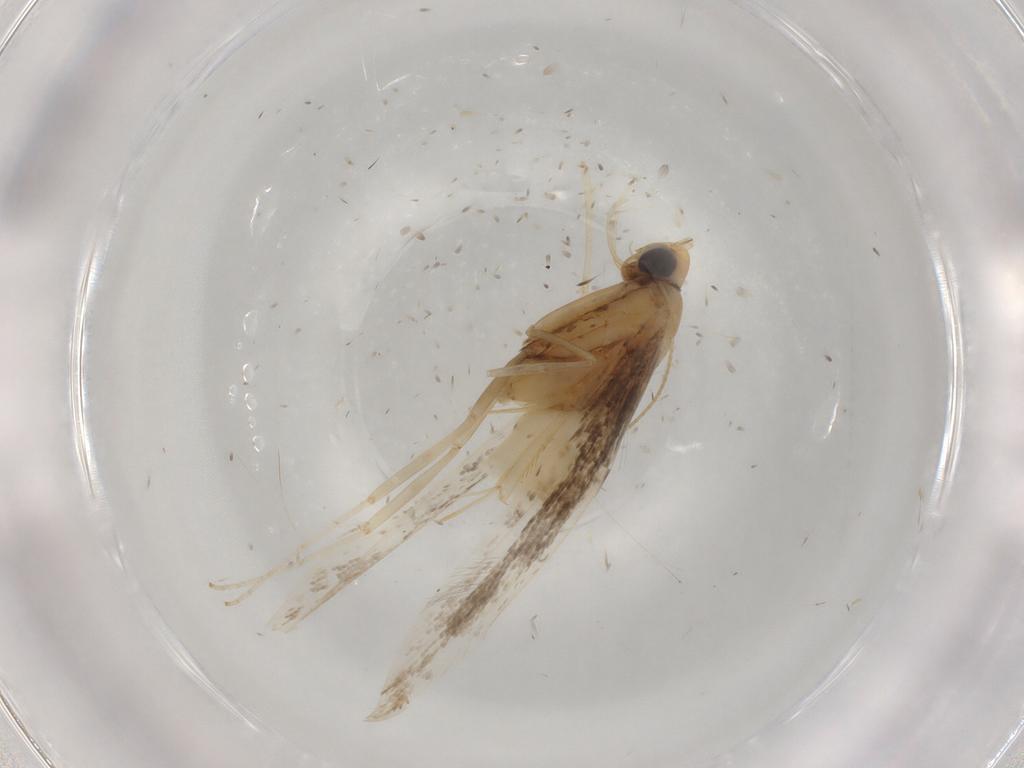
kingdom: Animalia
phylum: Arthropoda
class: Insecta
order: Lepidoptera
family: Gracillariidae
